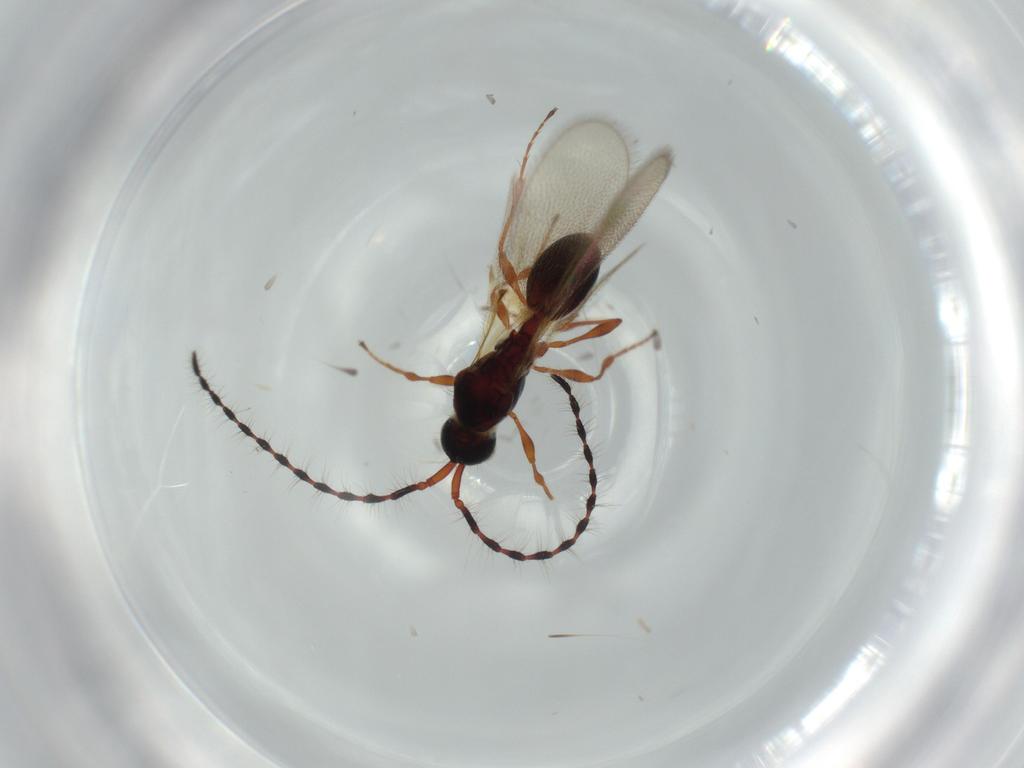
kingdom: Animalia
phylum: Arthropoda
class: Insecta
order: Hymenoptera
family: Diapriidae
